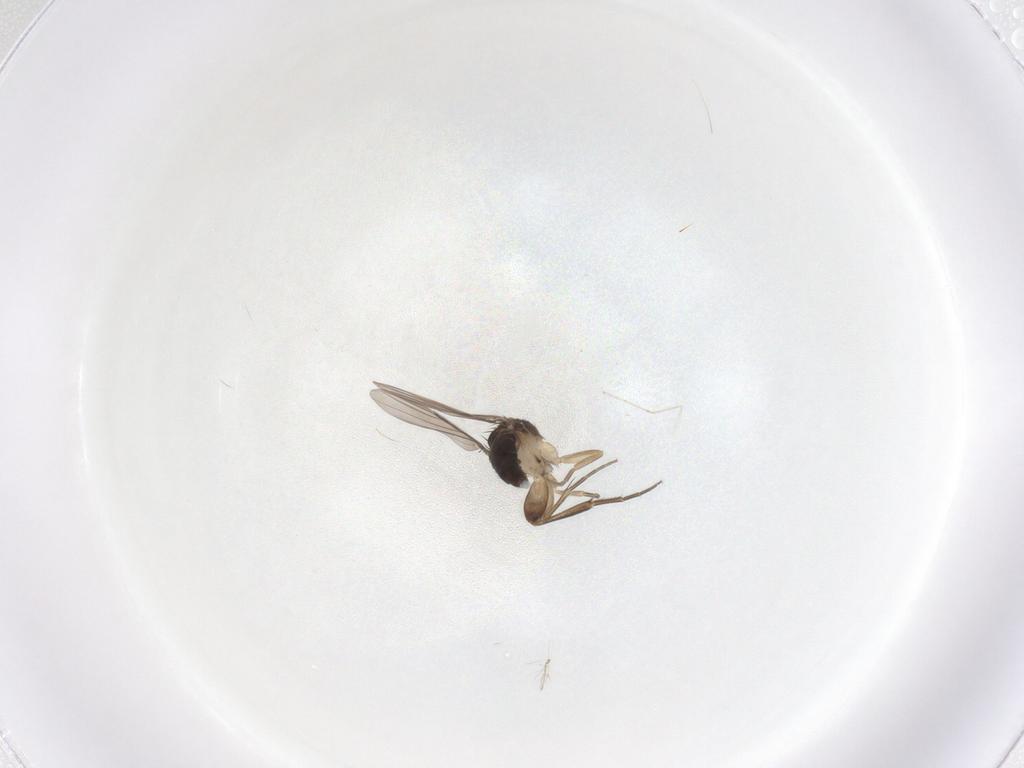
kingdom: Animalia
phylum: Arthropoda
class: Insecta
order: Diptera
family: Phoridae
